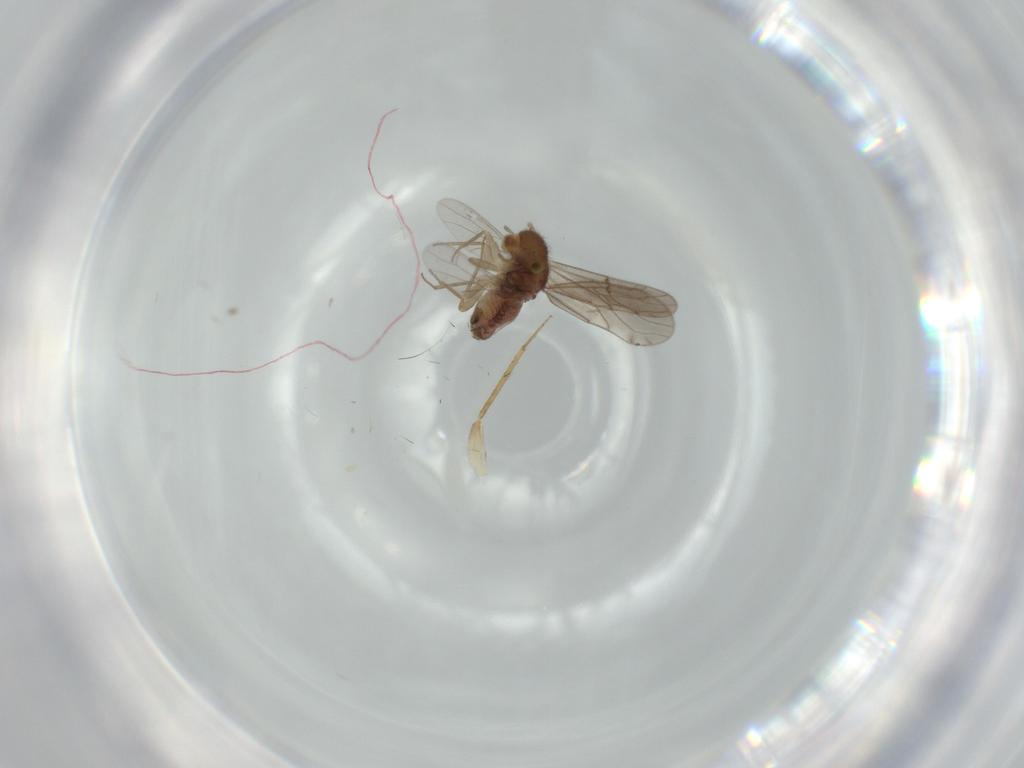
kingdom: Animalia
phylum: Arthropoda
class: Insecta
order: Psocodea
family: Ectopsocidae
